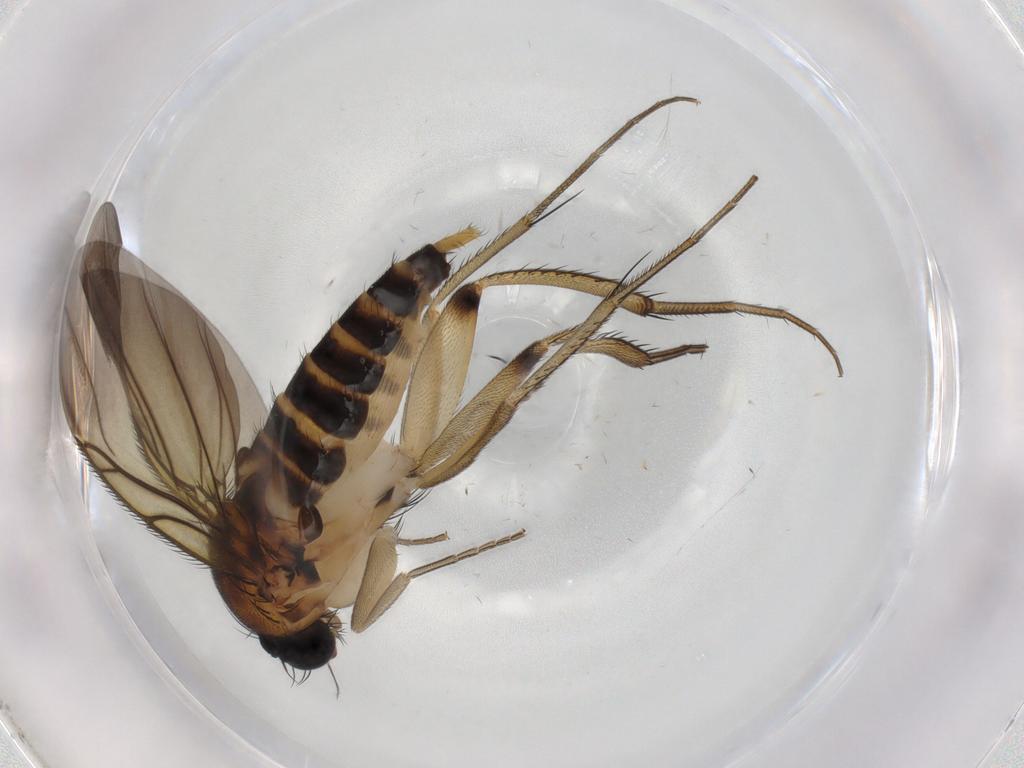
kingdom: Animalia
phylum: Arthropoda
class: Insecta
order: Diptera
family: Phoridae
